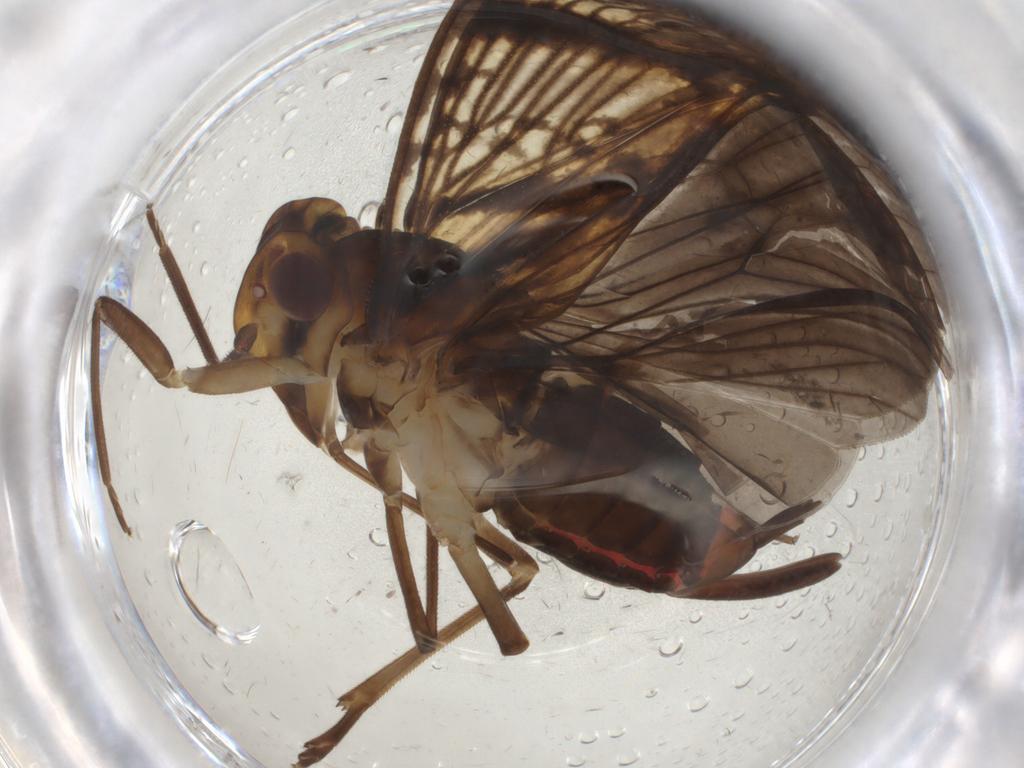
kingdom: Animalia
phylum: Arthropoda
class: Insecta
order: Hemiptera
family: Cixiidae
